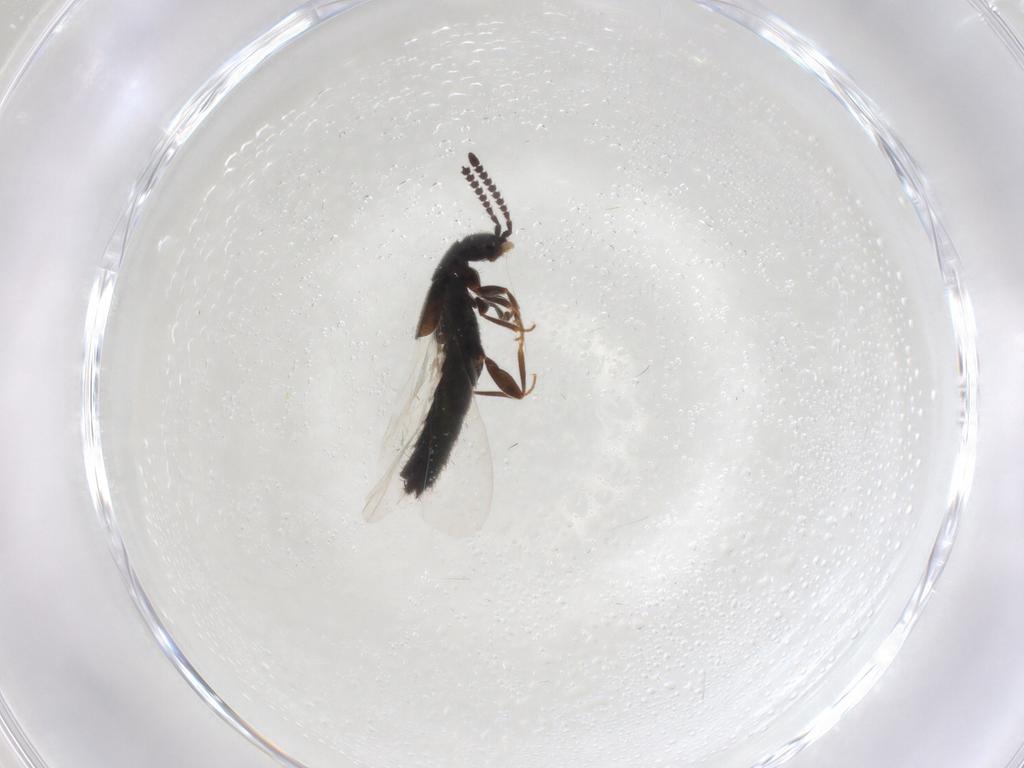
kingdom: Animalia
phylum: Arthropoda
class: Insecta
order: Coleoptera
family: Staphylinidae
